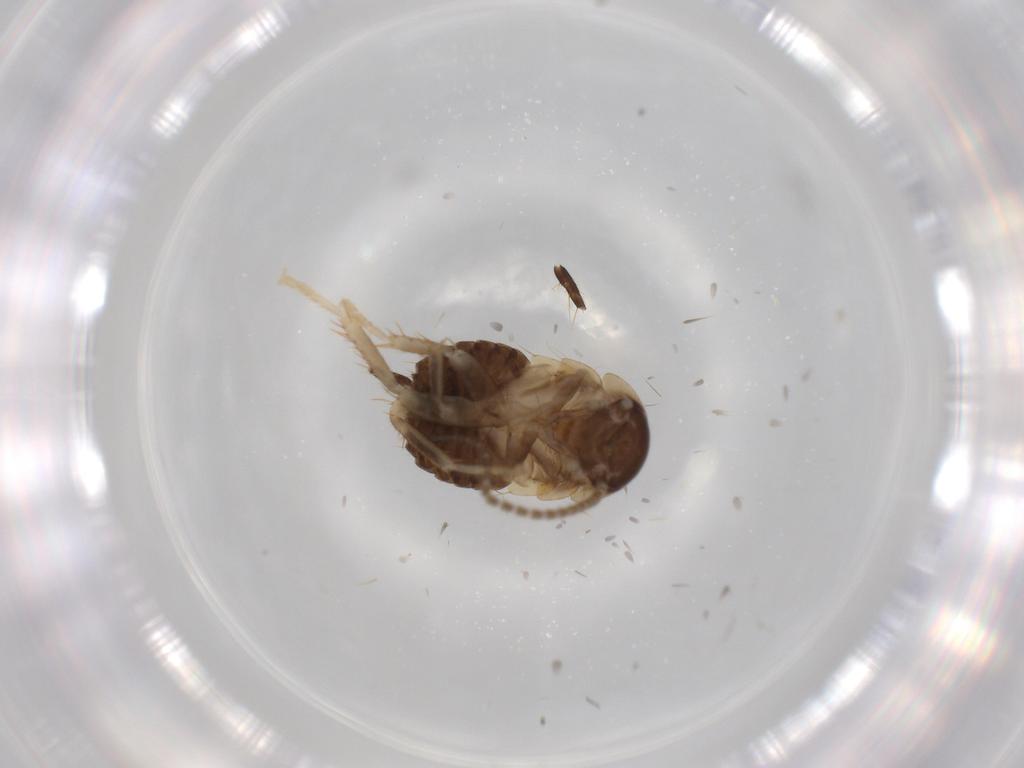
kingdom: Animalia
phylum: Arthropoda
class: Insecta
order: Blattodea
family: Ectobiidae
